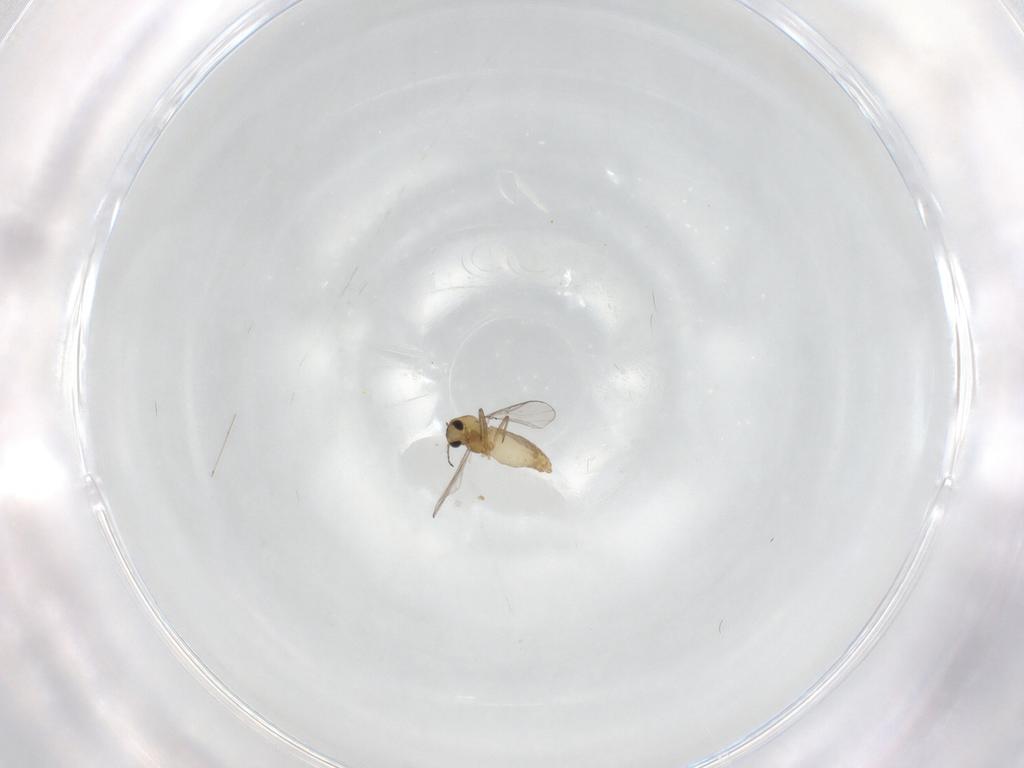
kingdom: Animalia
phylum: Arthropoda
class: Insecta
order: Diptera
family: Cecidomyiidae
